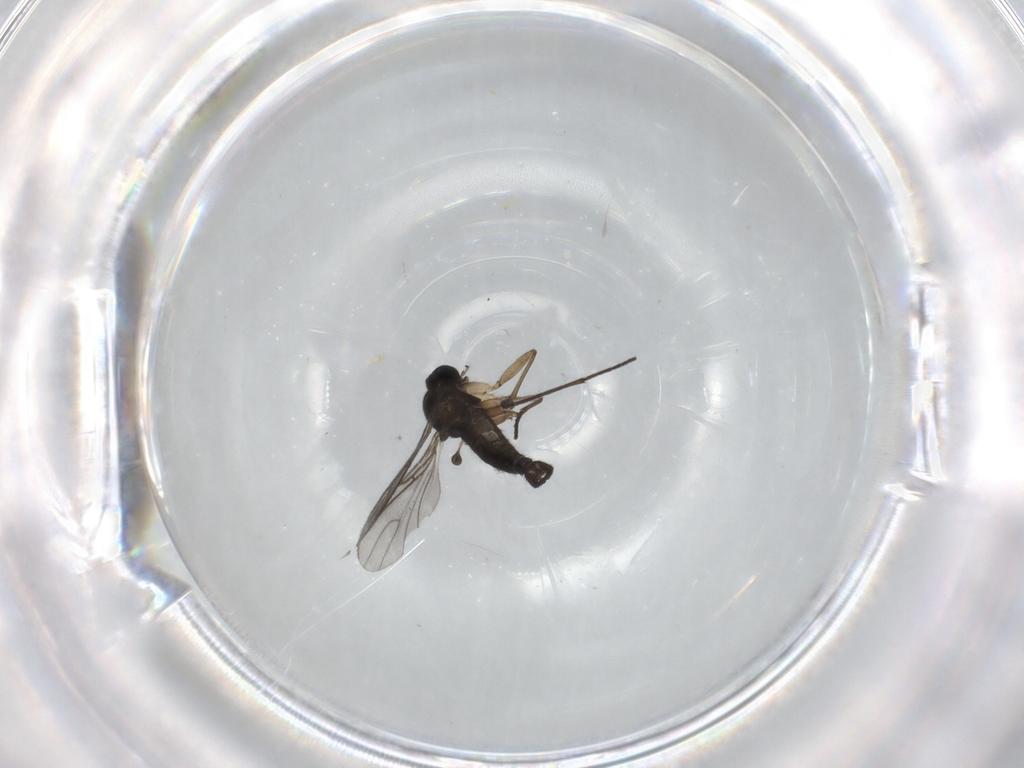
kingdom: Animalia
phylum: Arthropoda
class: Insecta
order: Diptera
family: Sciaridae
